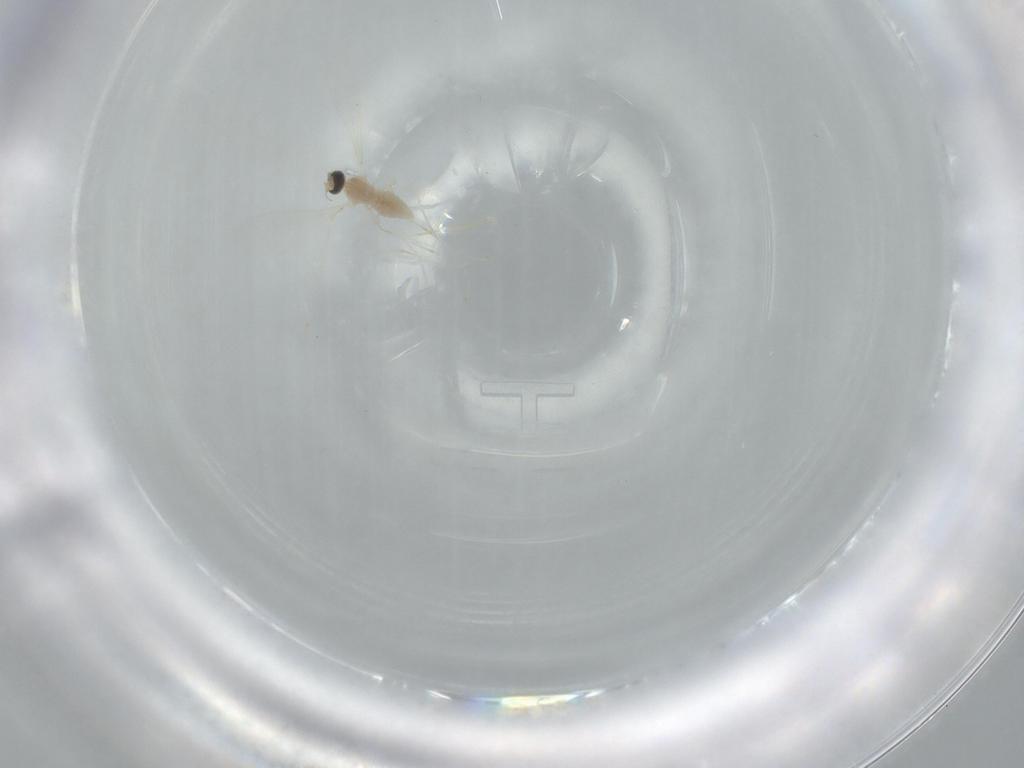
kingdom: Animalia
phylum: Arthropoda
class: Insecta
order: Diptera
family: Cecidomyiidae
